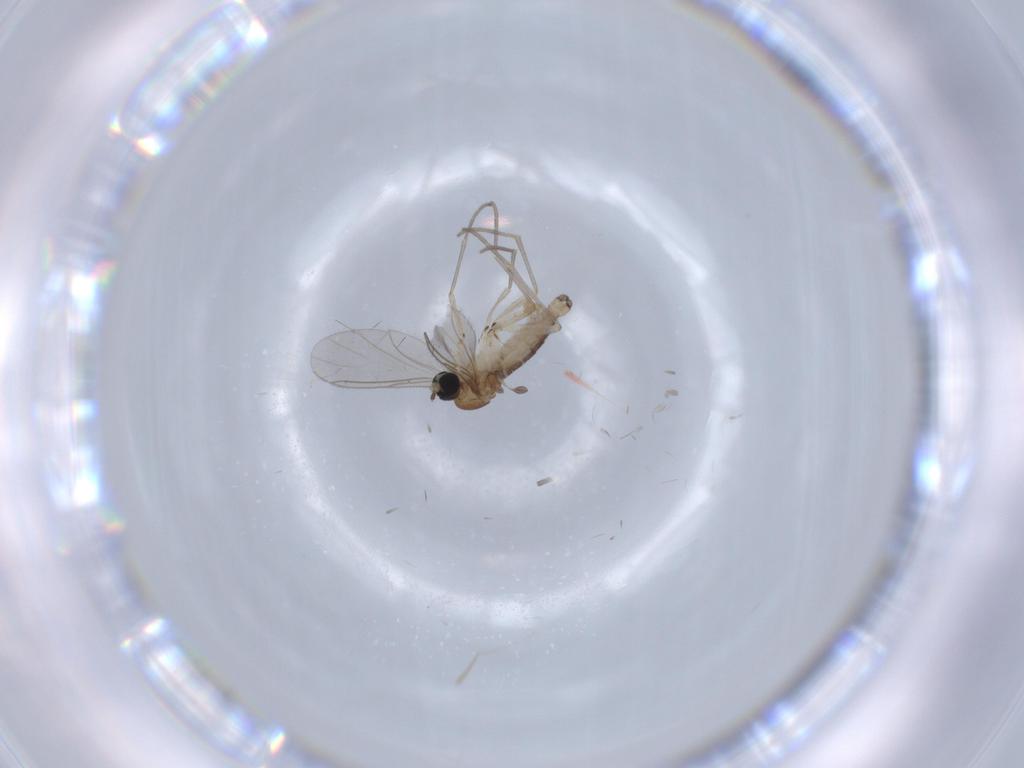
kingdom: Animalia
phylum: Arthropoda
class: Insecta
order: Diptera
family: Sciaridae
